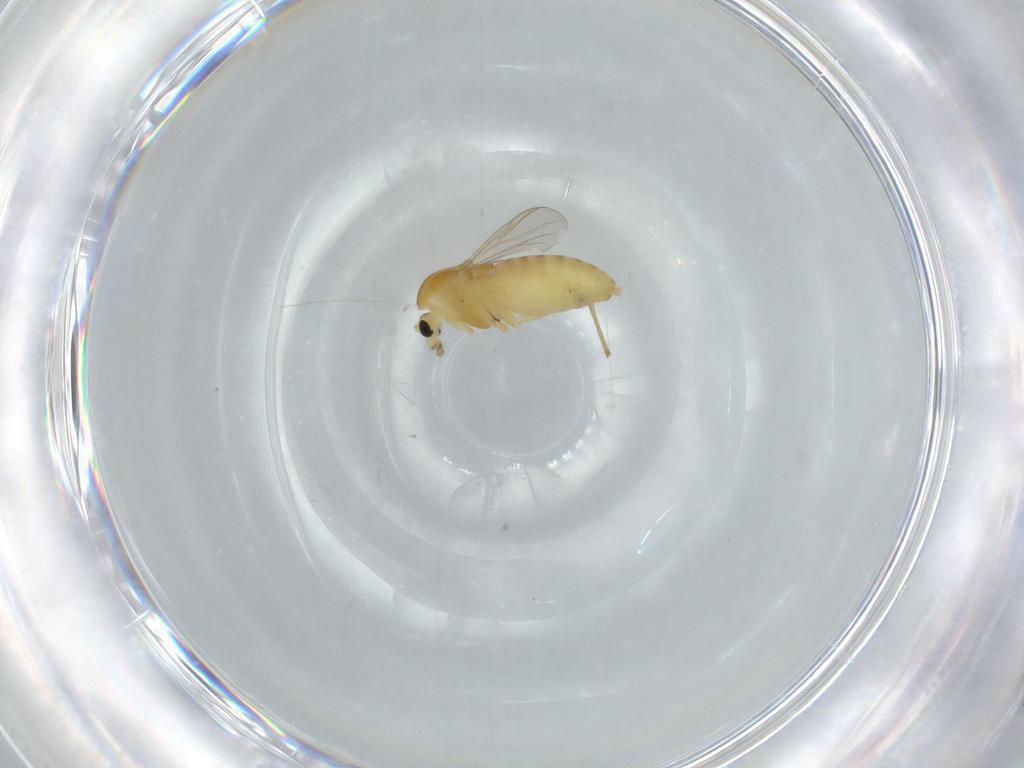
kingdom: Animalia
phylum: Arthropoda
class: Insecta
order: Diptera
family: Chironomidae
